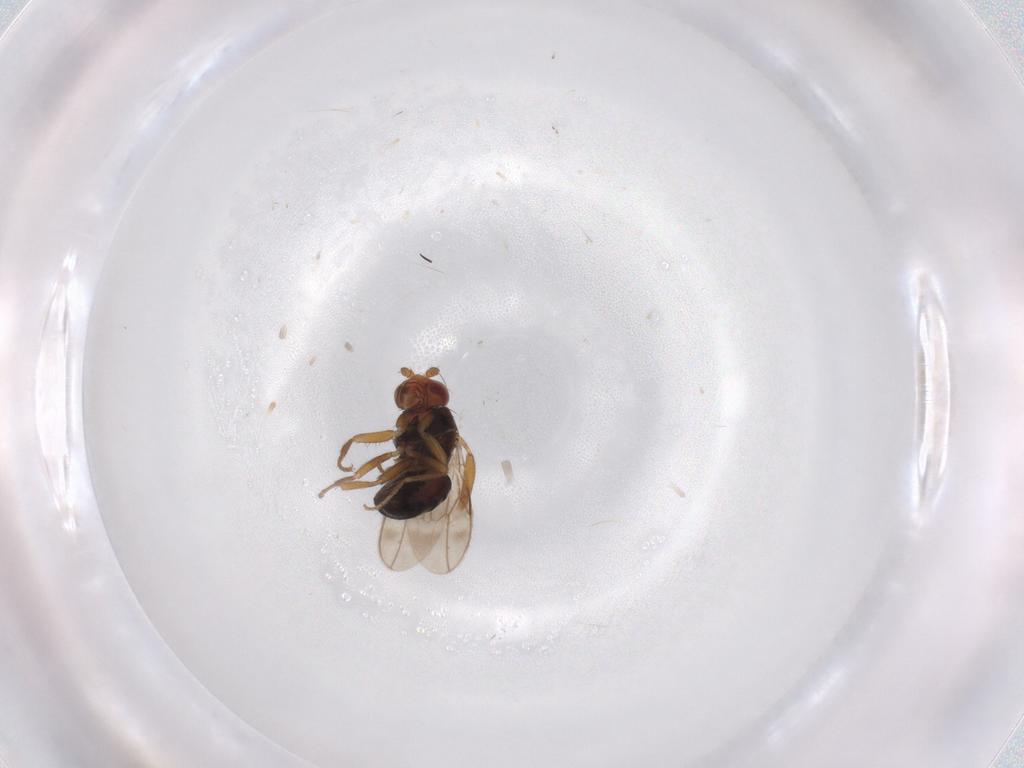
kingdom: Animalia
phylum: Arthropoda
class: Insecta
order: Diptera
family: Sphaeroceridae
